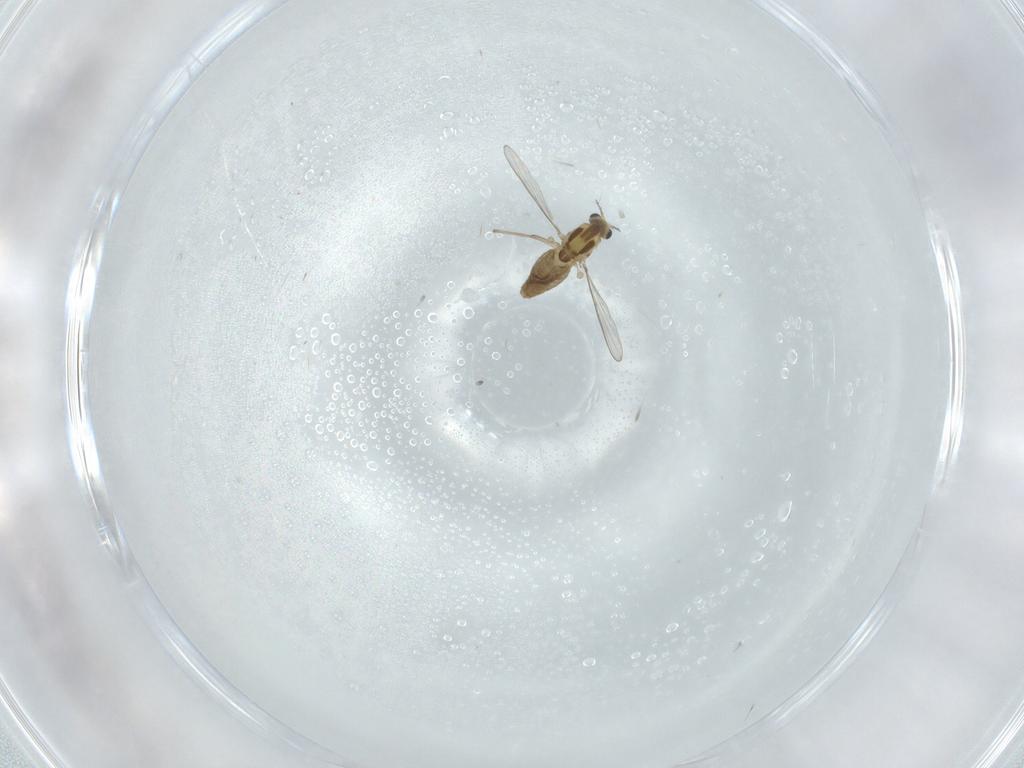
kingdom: Animalia
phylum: Arthropoda
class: Insecta
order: Diptera
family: Chironomidae
